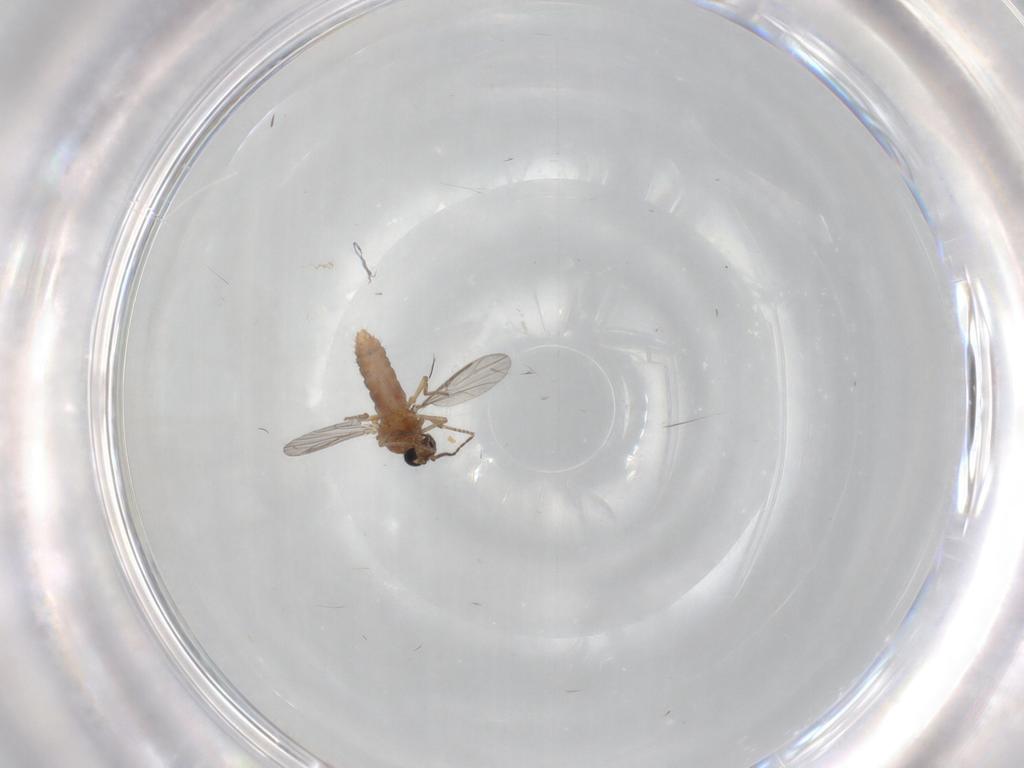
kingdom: Animalia
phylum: Arthropoda
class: Insecta
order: Diptera
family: Ceratopogonidae
